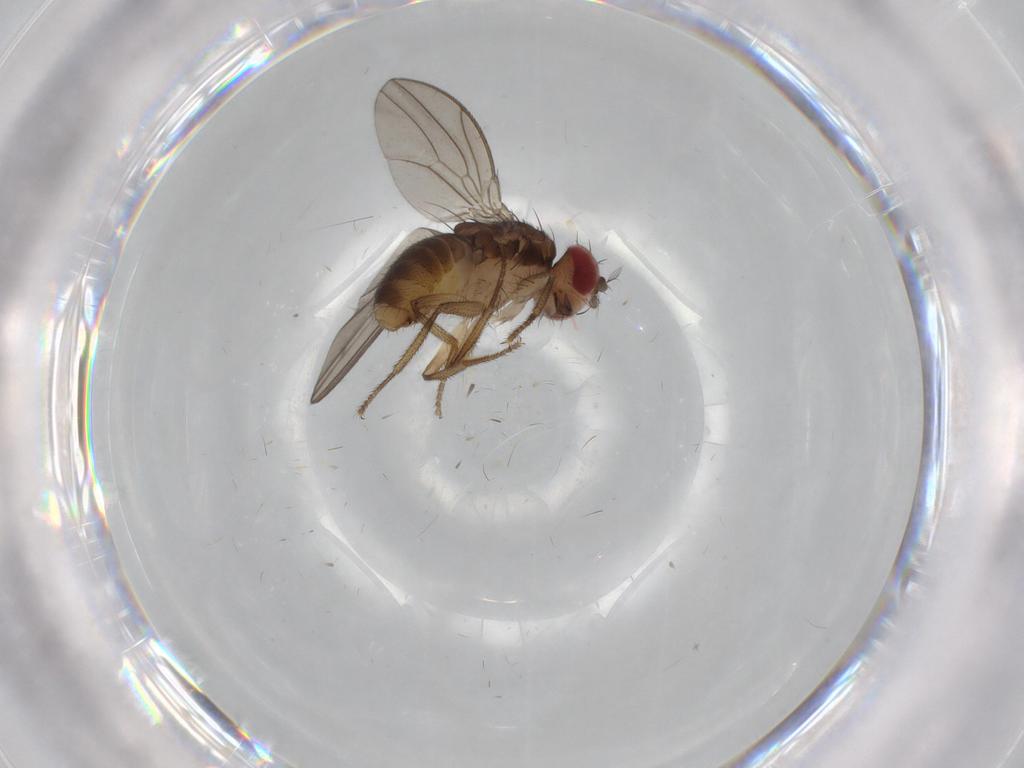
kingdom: Animalia
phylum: Arthropoda
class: Insecta
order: Diptera
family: Drosophilidae
